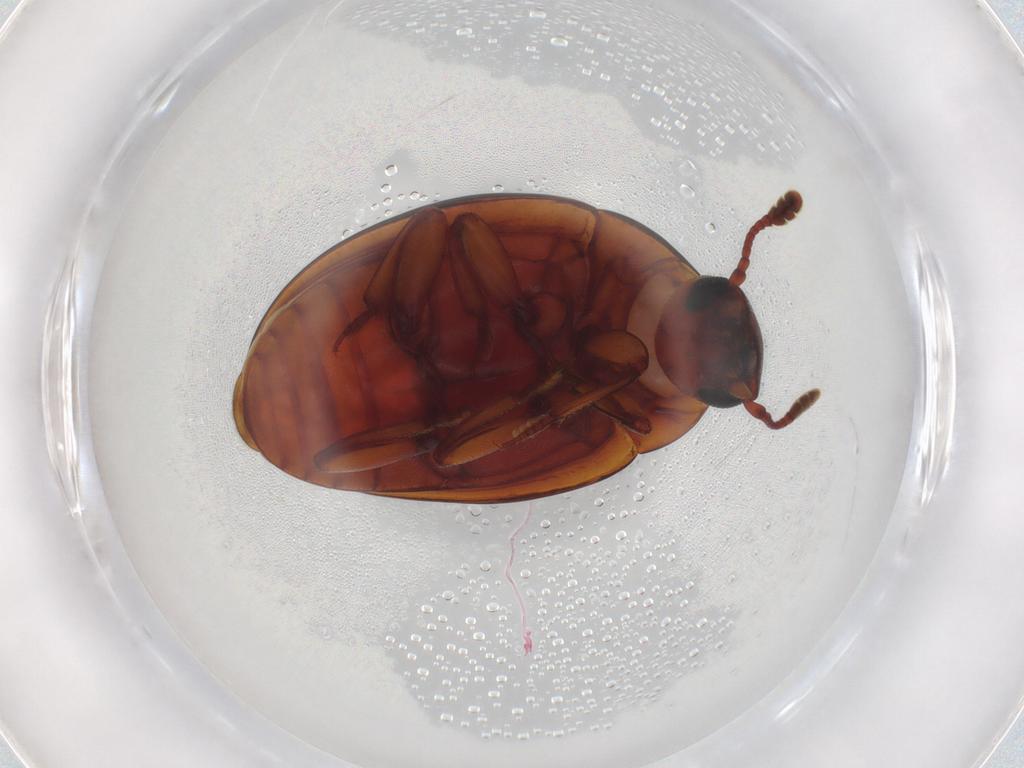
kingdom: Animalia
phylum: Arthropoda
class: Insecta
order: Coleoptera
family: Zopheridae
